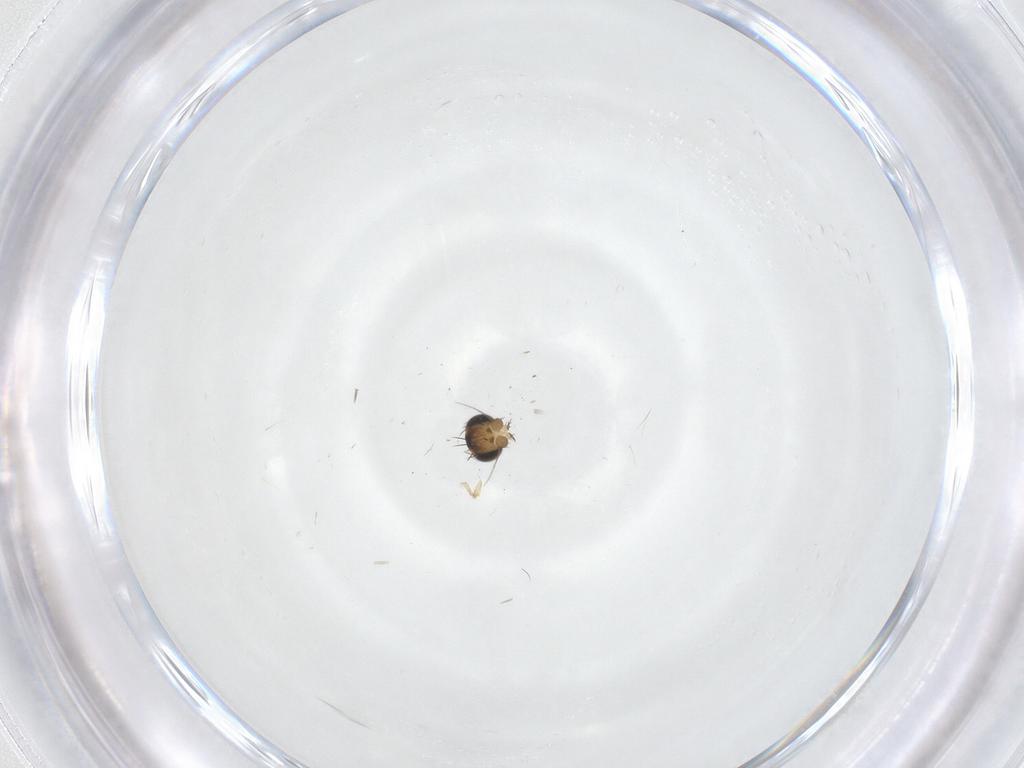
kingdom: Animalia
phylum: Arthropoda
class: Insecta
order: Diptera
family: Phoridae
